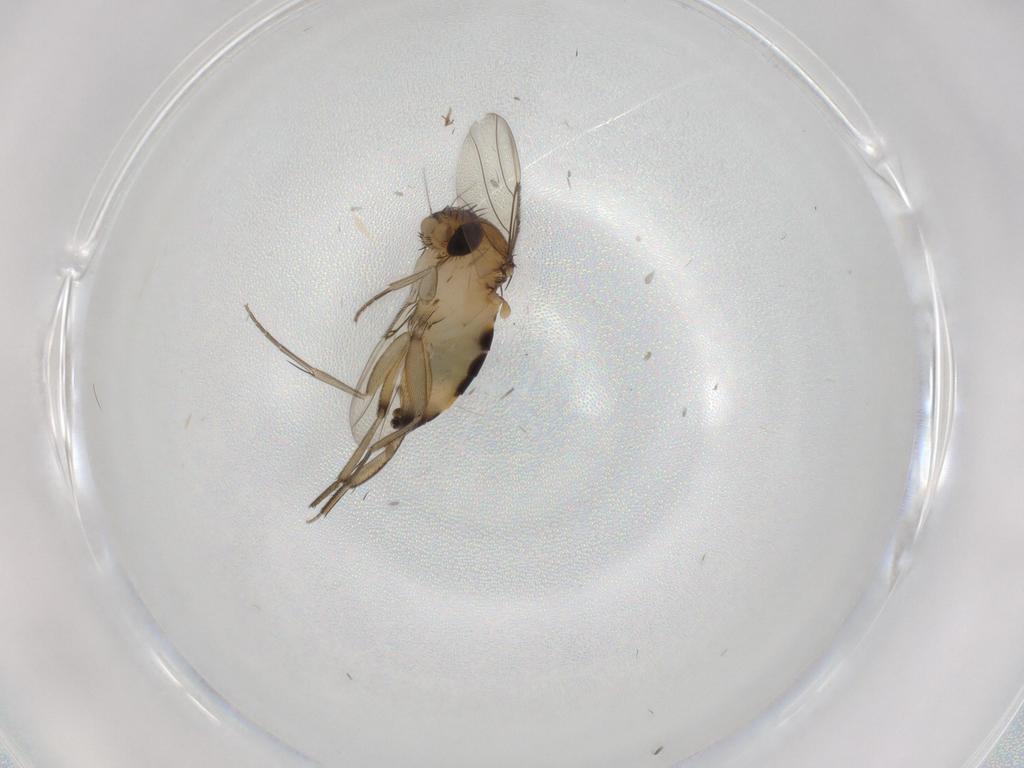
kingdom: Animalia
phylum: Arthropoda
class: Insecta
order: Diptera
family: Phoridae
